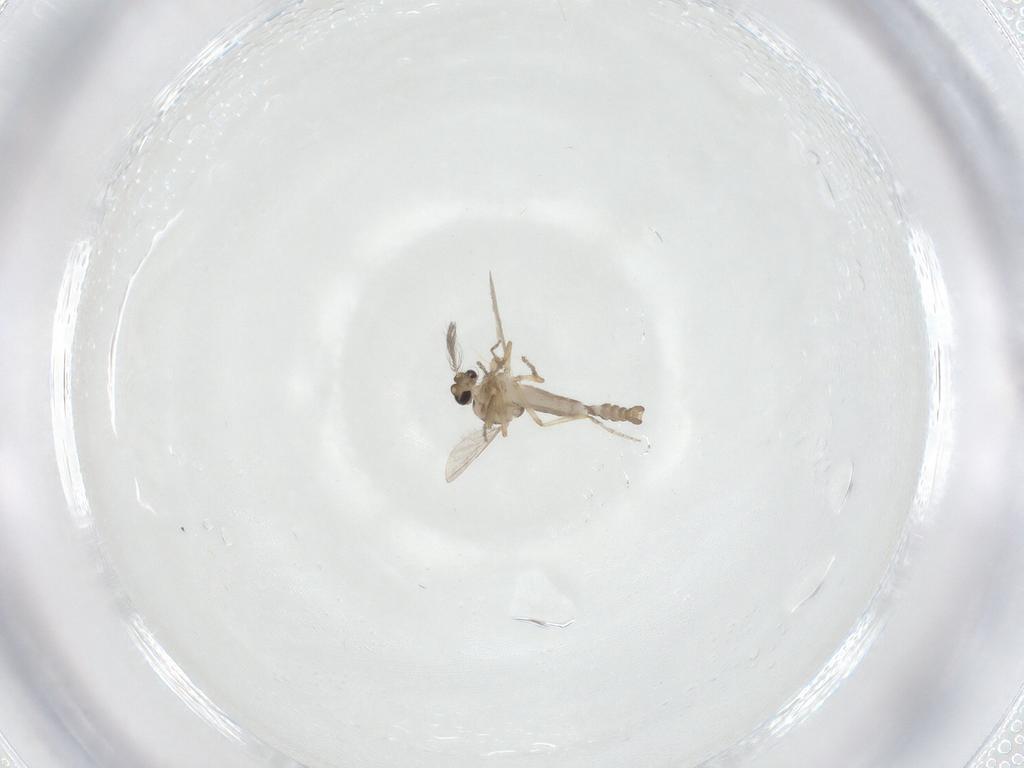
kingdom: Animalia
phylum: Arthropoda
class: Insecta
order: Diptera
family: Ceratopogonidae
